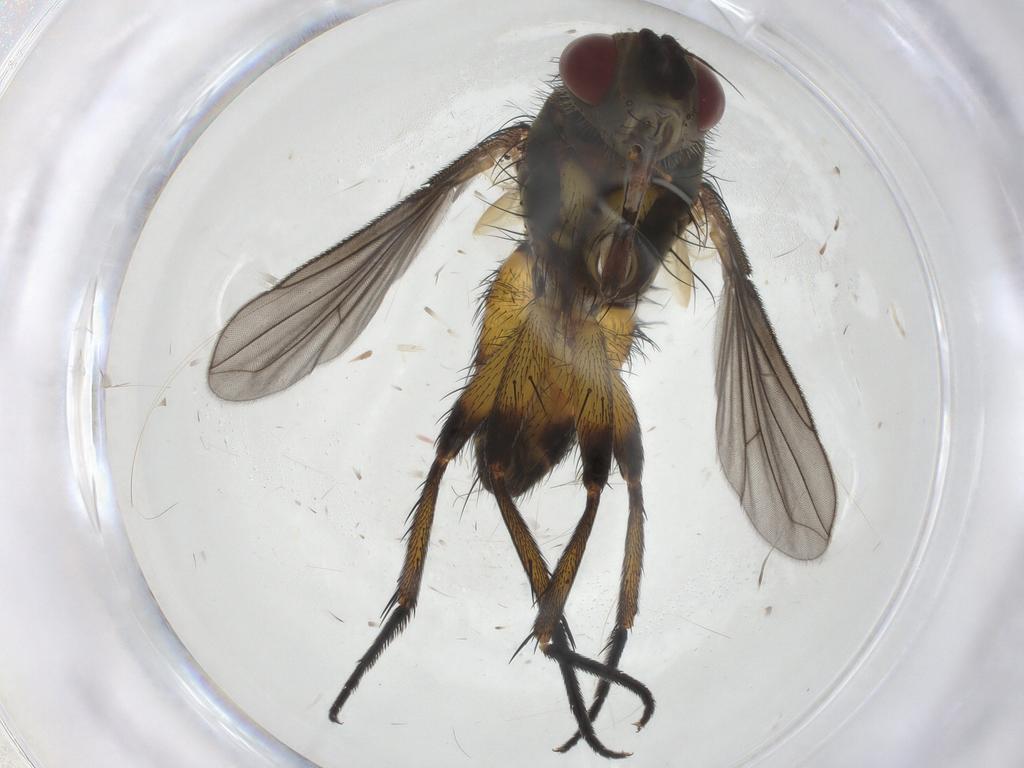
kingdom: Animalia
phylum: Arthropoda
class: Insecta
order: Diptera
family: Tachinidae
